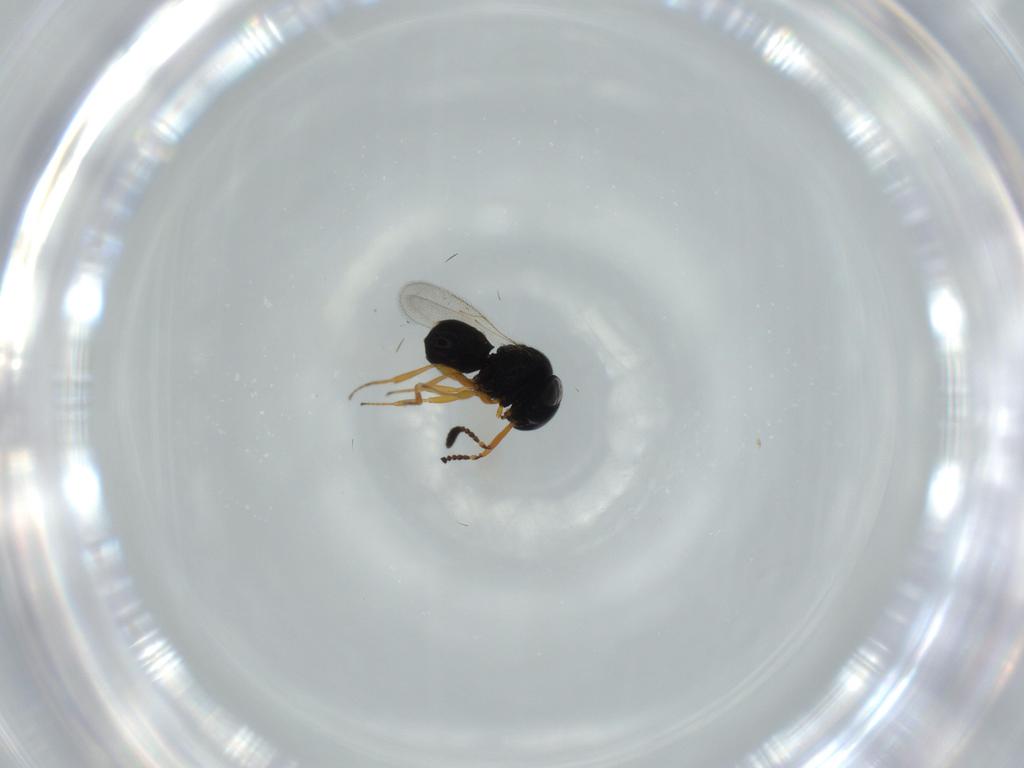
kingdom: Animalia
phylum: Arthropoda
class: Insecta
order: Hymenoptera
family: Scelionidae
